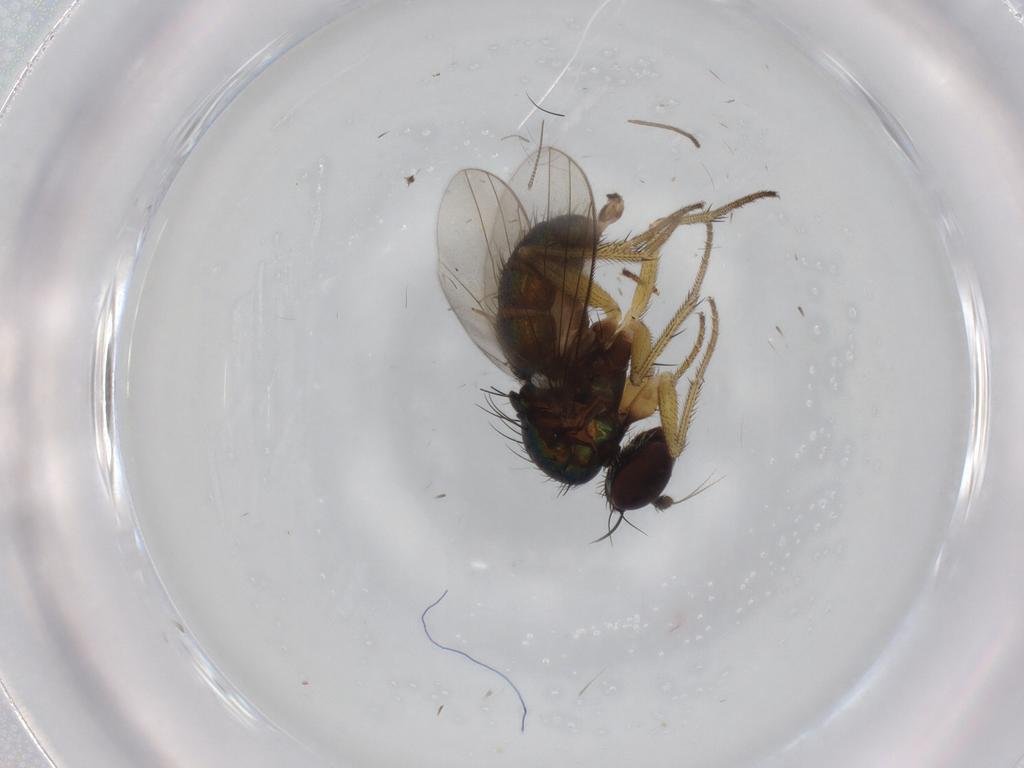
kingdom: Animalia
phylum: Arthropoda
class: Insecta
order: Diptera
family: Dolichopodidae
